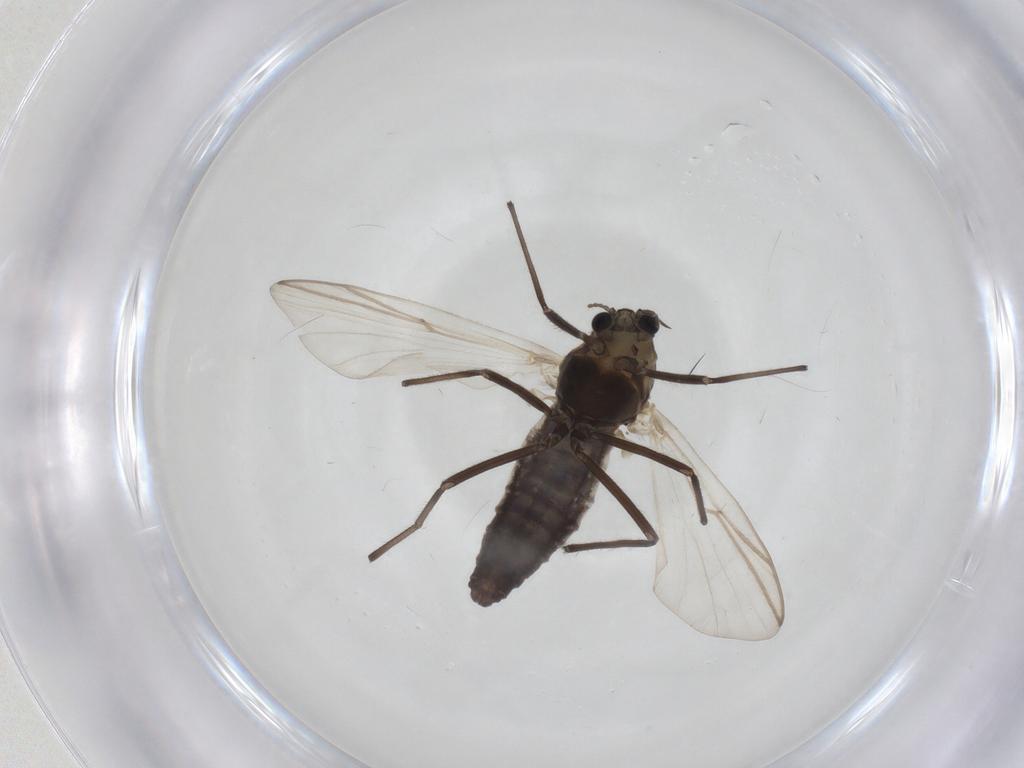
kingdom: Animalia
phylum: Arthropoda
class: Insecta
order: Diptera
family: Chironomidae
